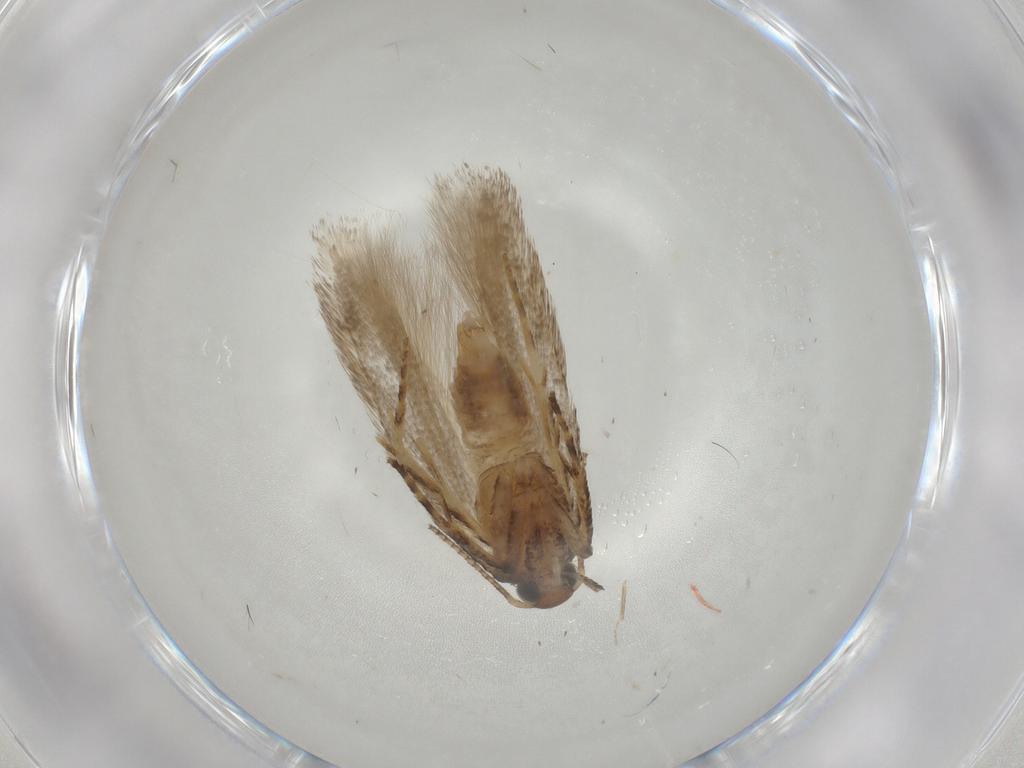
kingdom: Animalia
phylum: Arthropoda
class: Insecta
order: Lepidoptera
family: Gelechiidae
